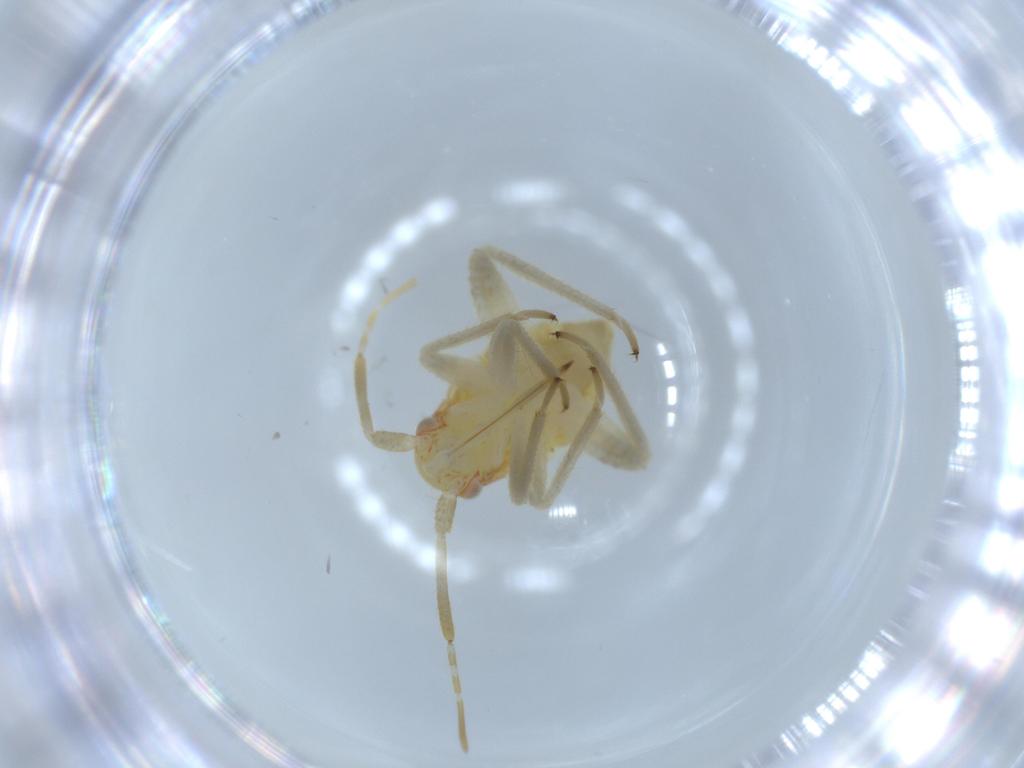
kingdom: Animalia
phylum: Arthropoda
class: Insecta
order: Hemiptera
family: Miridae
